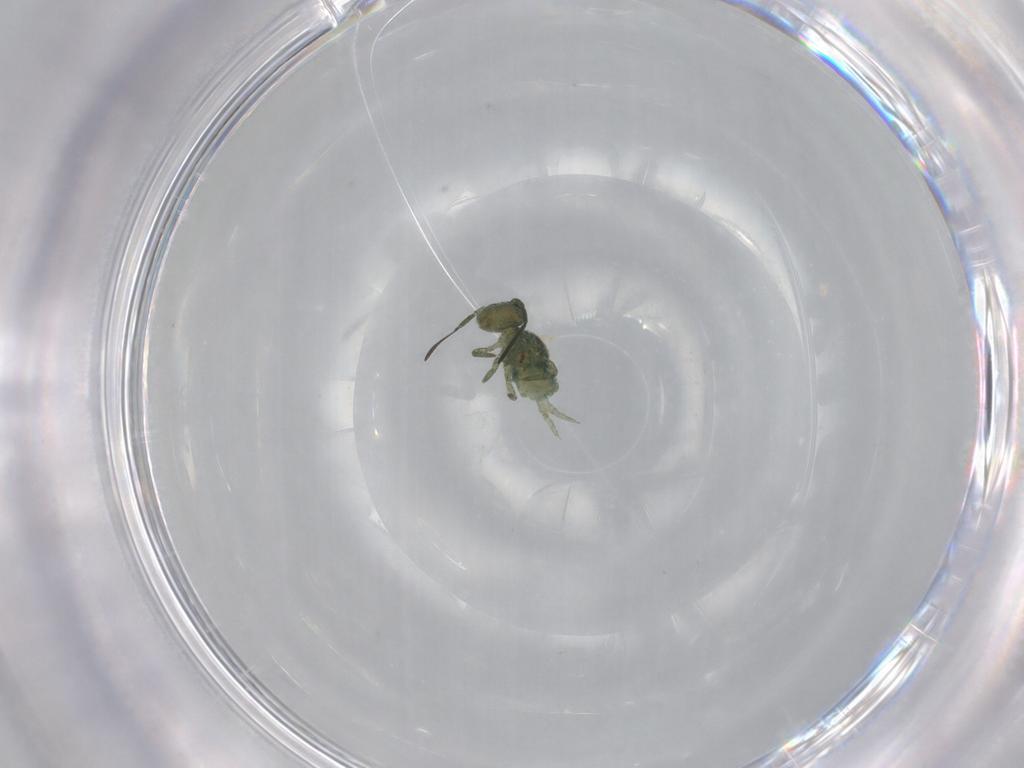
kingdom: Animalia
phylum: Arthropoda
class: Collembola
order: Symphypleona
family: Sminthuridae
